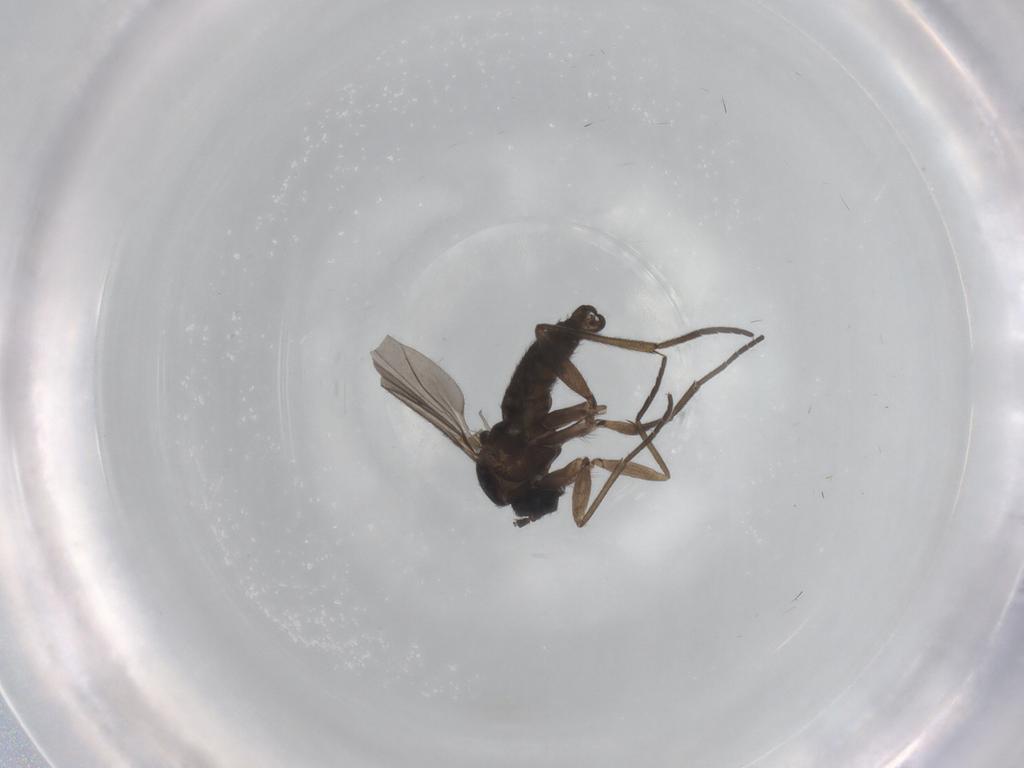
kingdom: Animalia
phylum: Arthropoda
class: Insecta
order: Diptera
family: Sciaridae
